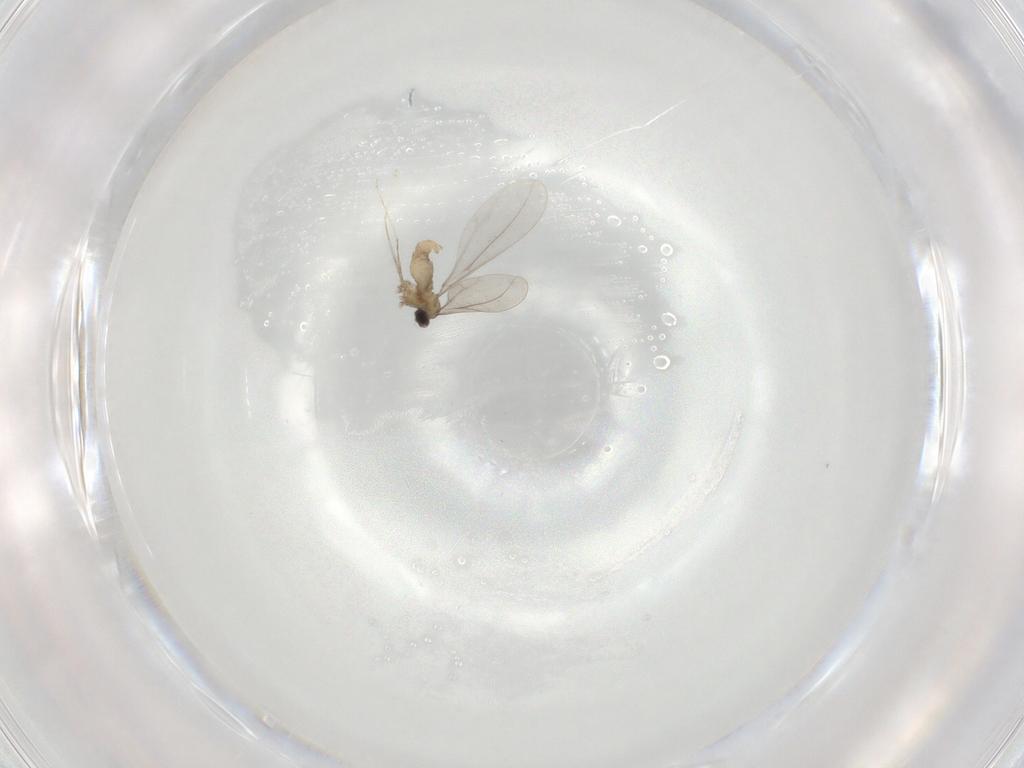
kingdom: Animalia
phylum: Arthropoda
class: Insecta
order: Diptera
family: Cecidomyiidae
